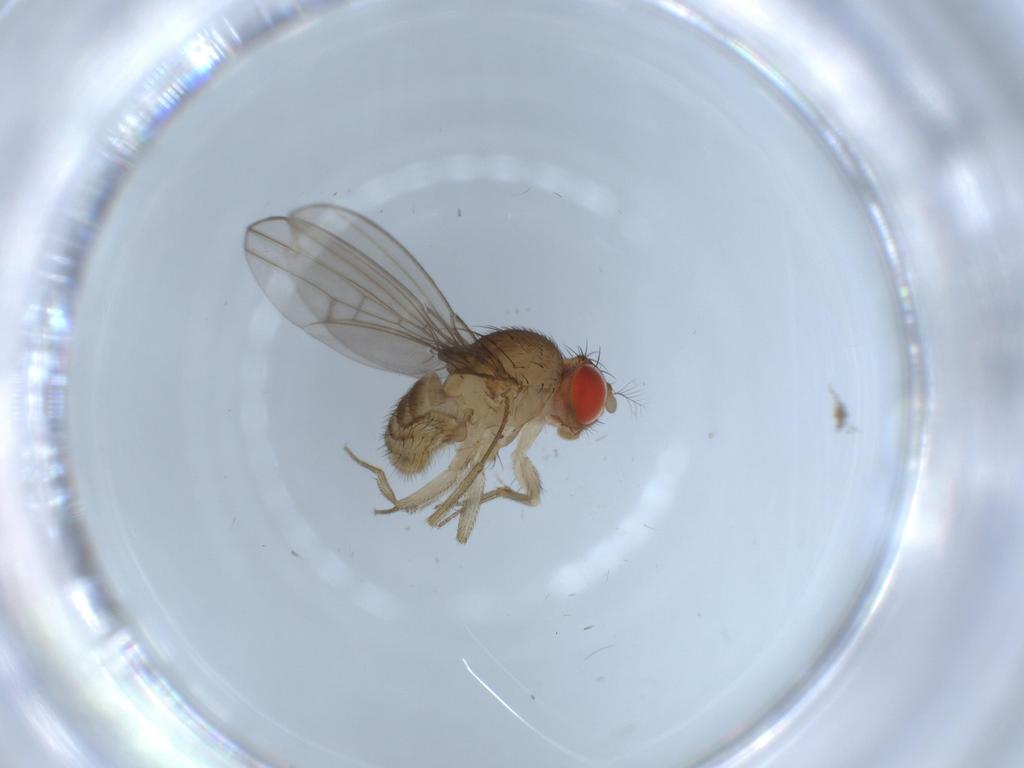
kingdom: Animalia
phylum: Arthropoda
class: Insecta
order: Diptera
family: Drosophilidae
